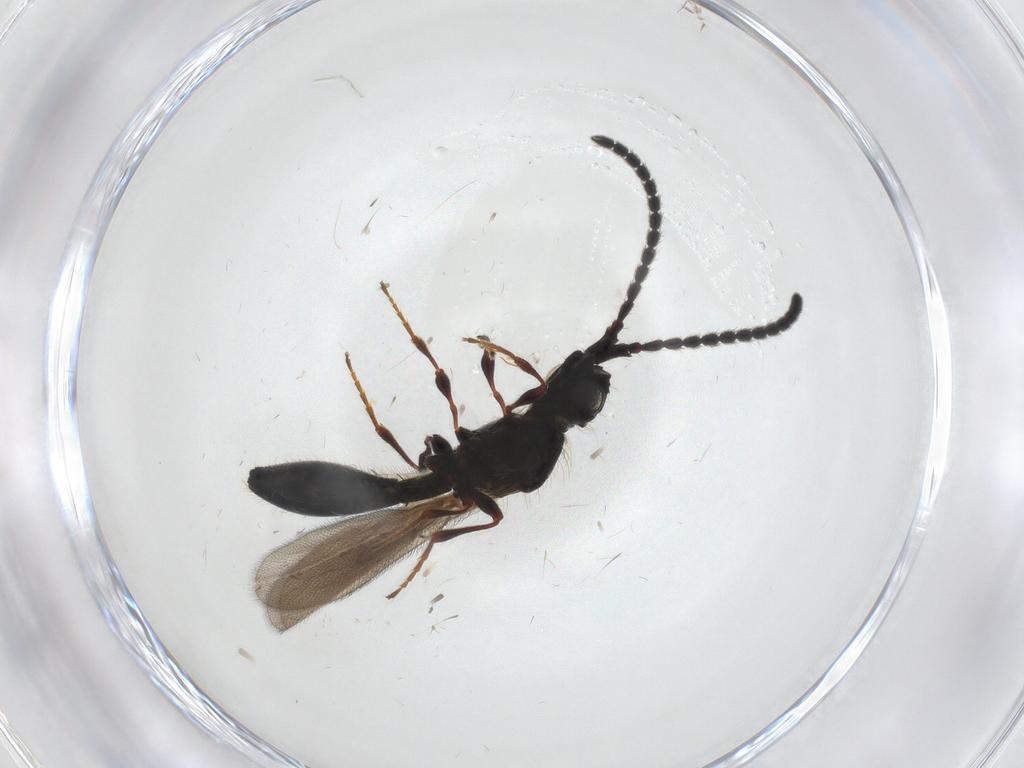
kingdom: Animalia
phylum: Arthropoda
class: Insecta
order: Hymenoptera
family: Diapriidae
